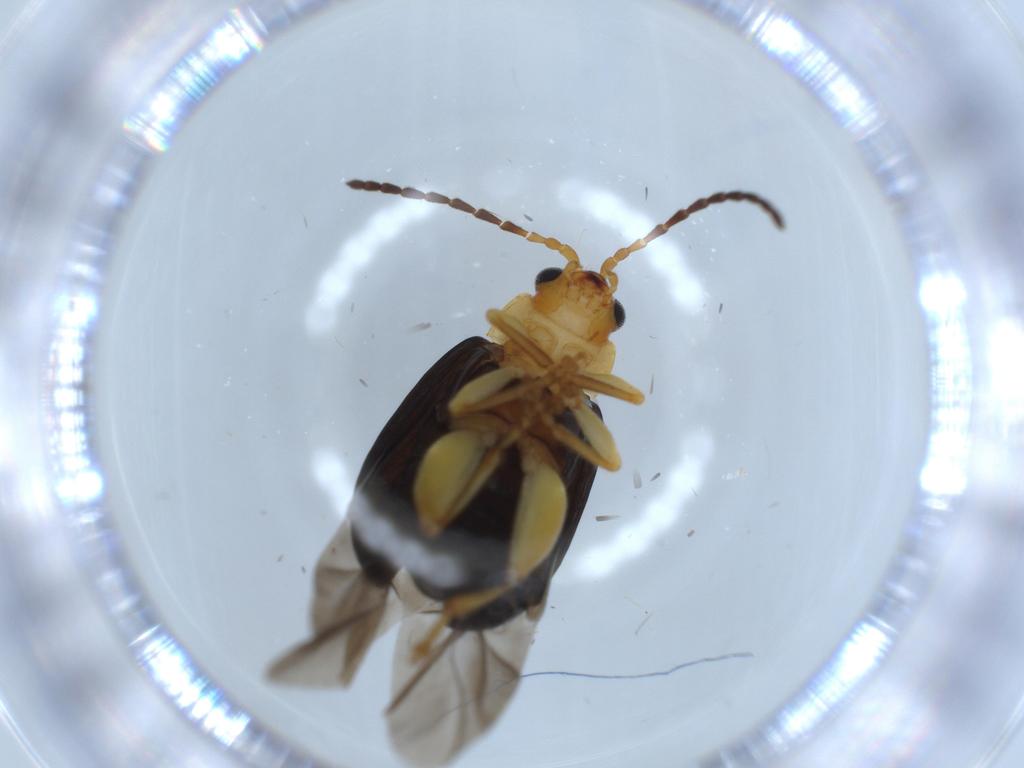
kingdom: Animalia
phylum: Arthropoda
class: Insecta
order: Coleoptera
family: Chrysomelidae
